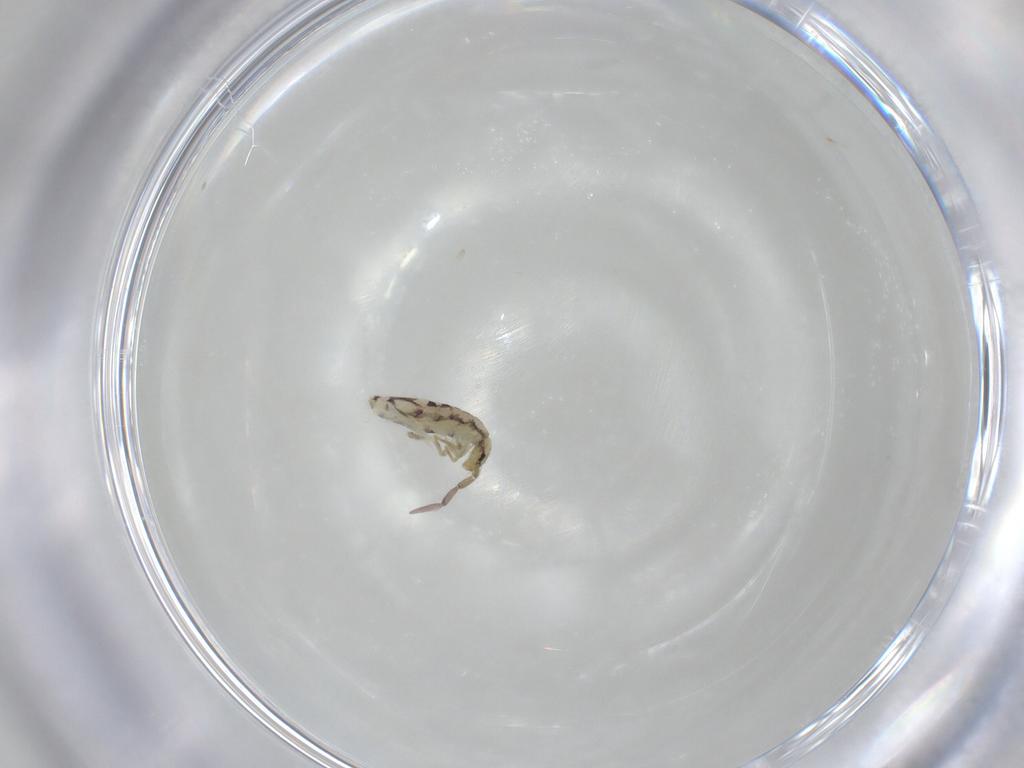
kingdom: Animalia
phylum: Arthropoda
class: Collembola
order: Entomobryomorpha
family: Entomobryidae
